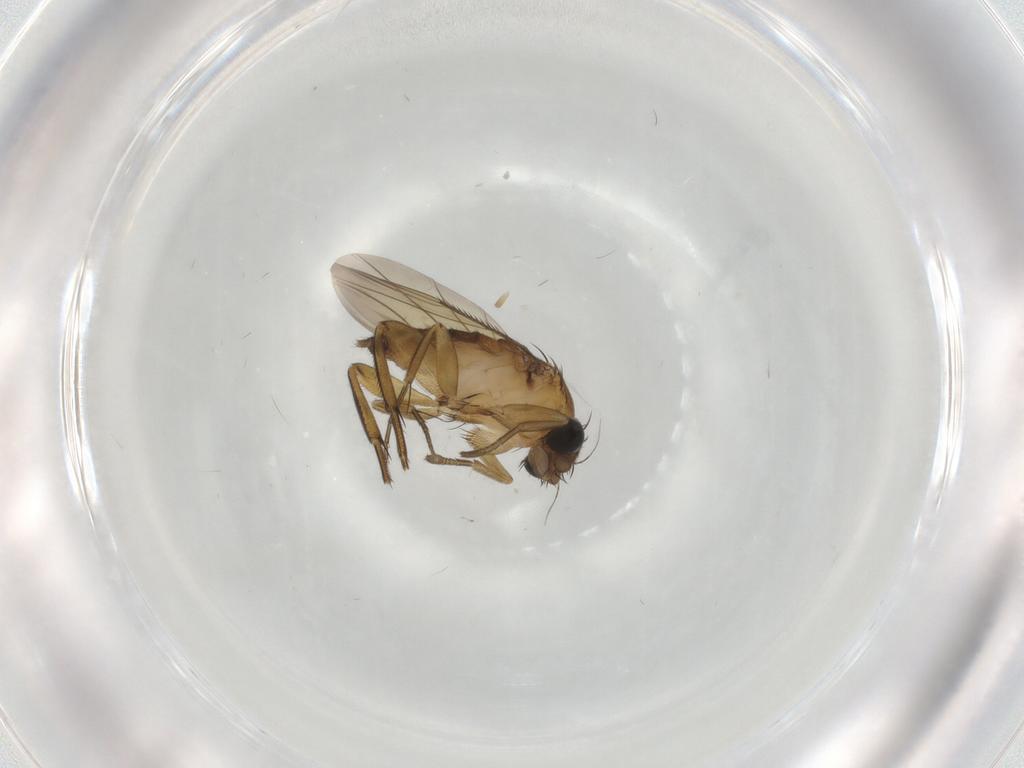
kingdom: Animalia
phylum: Arthropoda
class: Insecta
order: Diptera
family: Phoridae
